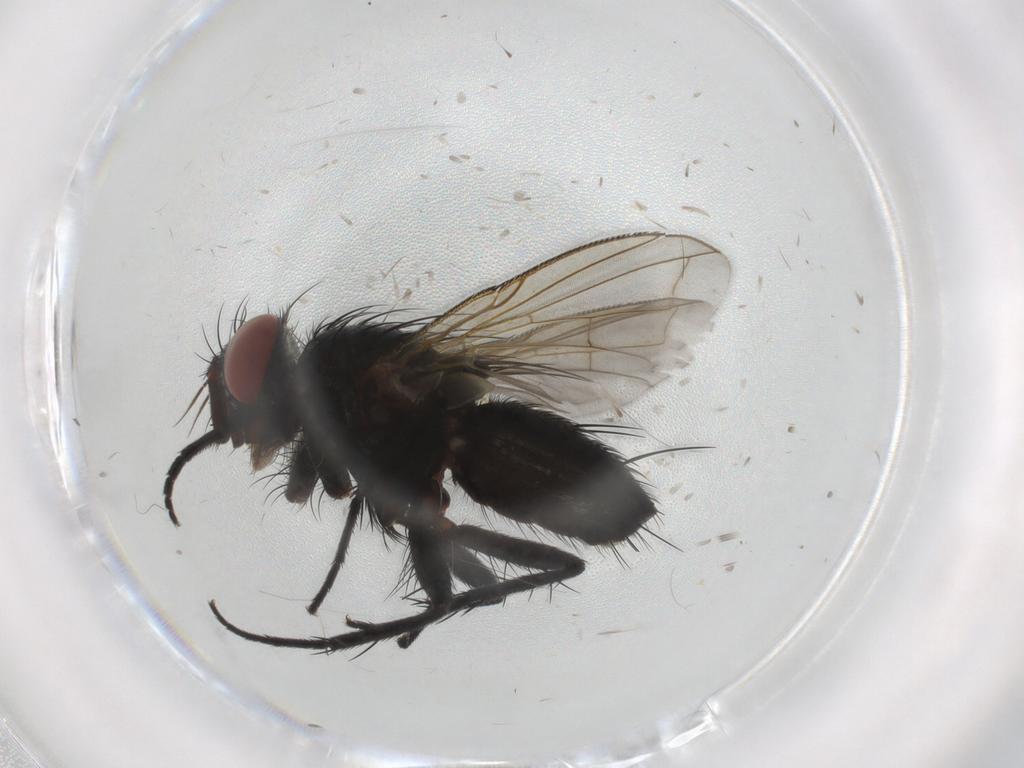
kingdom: Animalia
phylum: Arthropoda
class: Insecta
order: Diptera
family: Tachinidae
